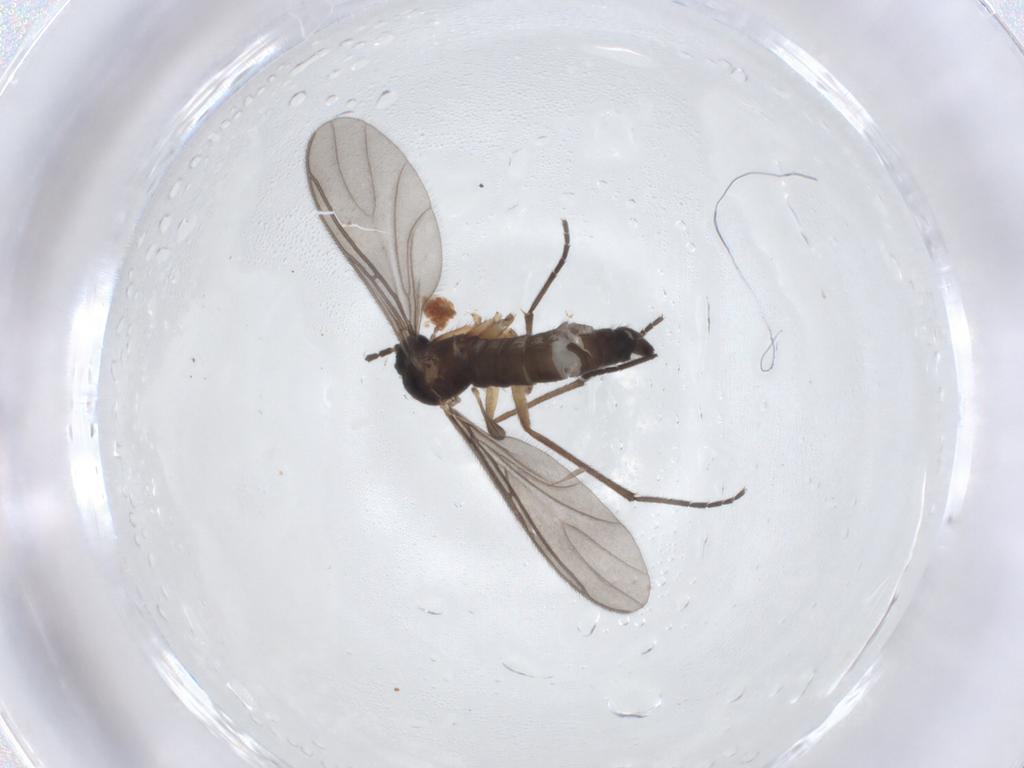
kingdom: Animalia
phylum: Arthropoda
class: Insecta
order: Diptera
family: Sciaridae
